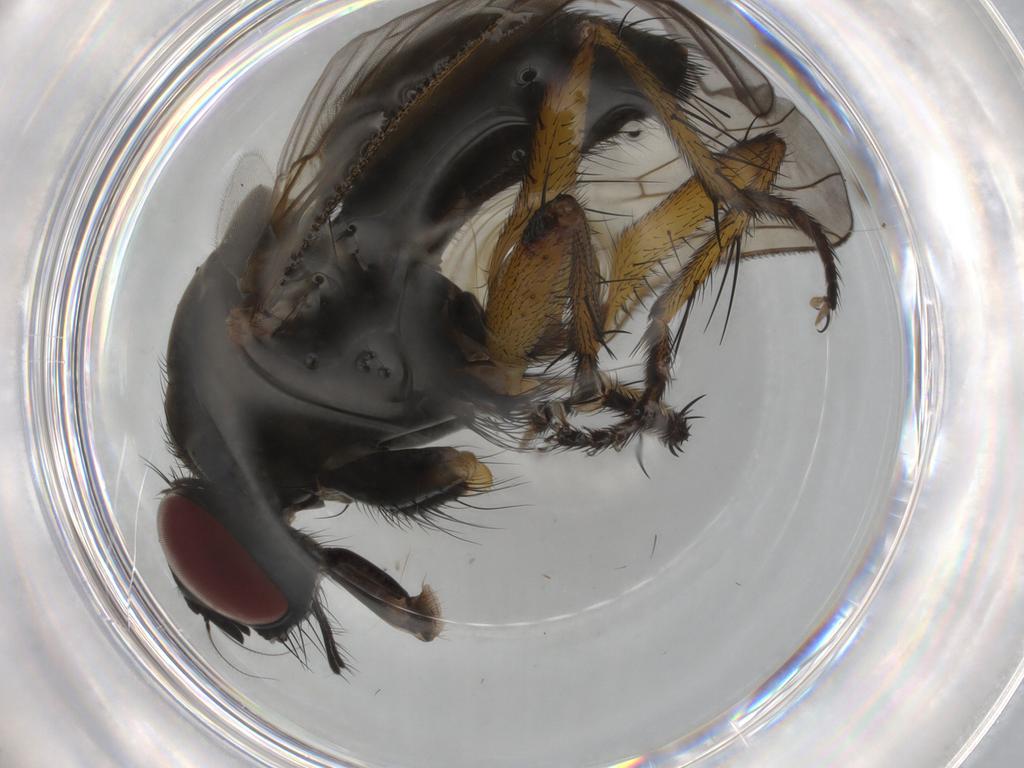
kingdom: Animalia
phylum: Arthropoda
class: Insecta
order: Diptera
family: Muscidae
